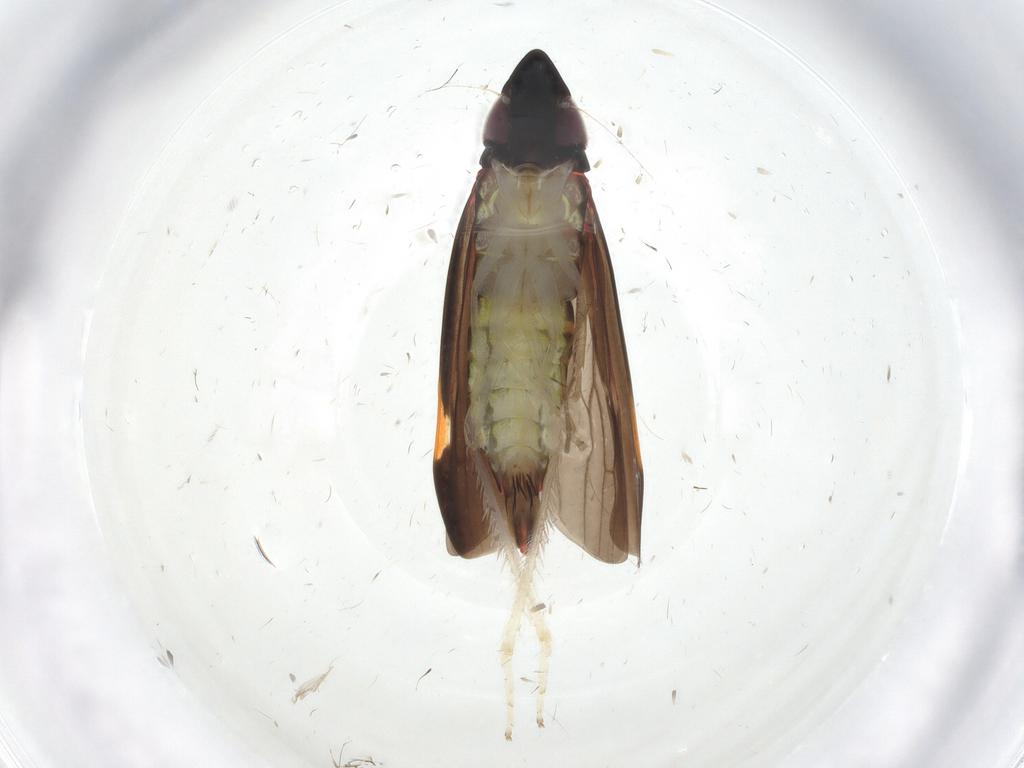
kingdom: Animalia
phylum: Arthropoda
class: Insecta
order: Hemiptera
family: Cicadellidae
